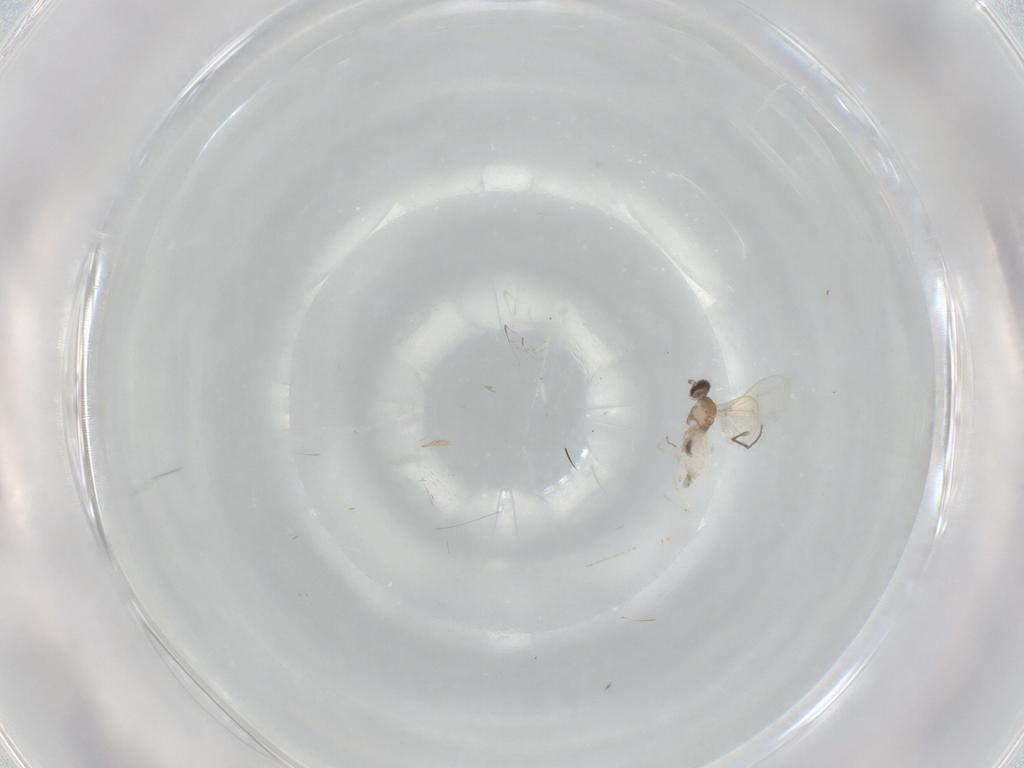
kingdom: Animalia
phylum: Arthropoda
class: Insecta
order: Diptera
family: Cecidomyiidae
